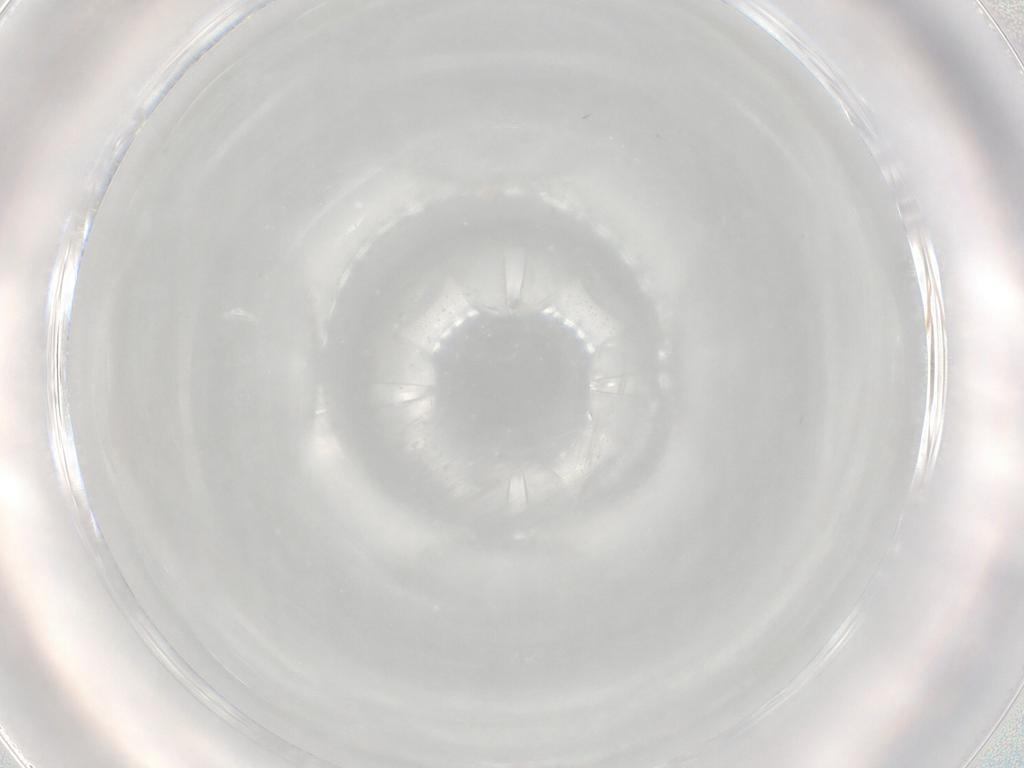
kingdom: Animalia
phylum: Arthropoda
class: Insecta
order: Hymenoptera
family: Mymaridae
